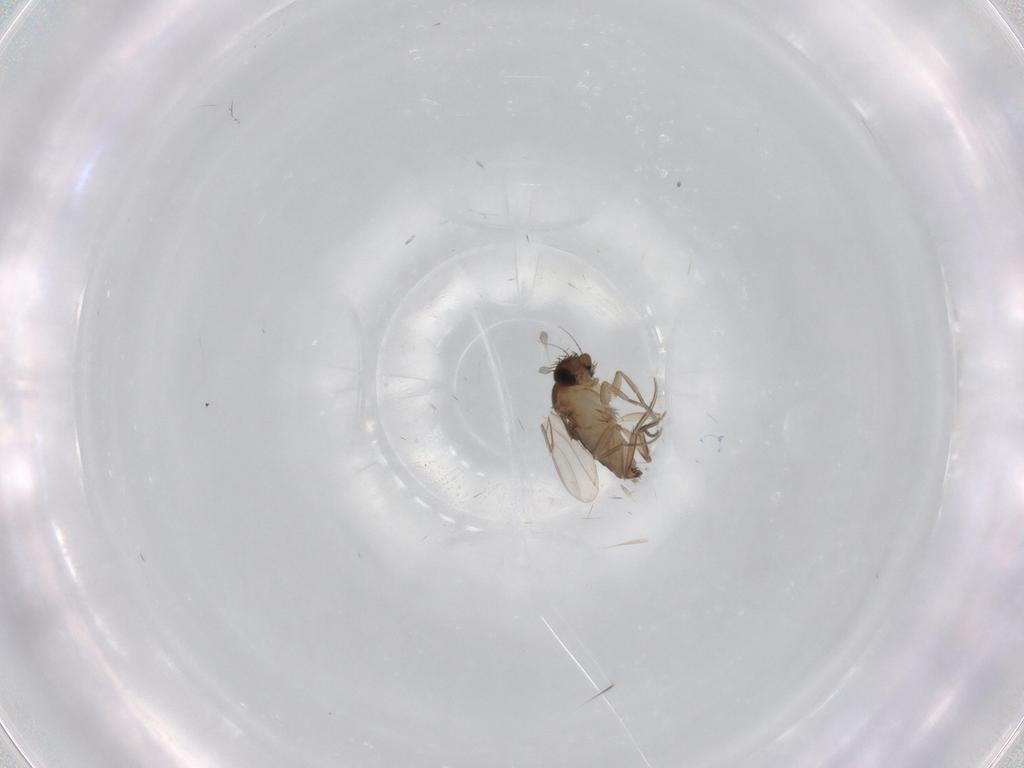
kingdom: Animalia
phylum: Arthropoda
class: Insecta
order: Diptera
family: Phoridae
